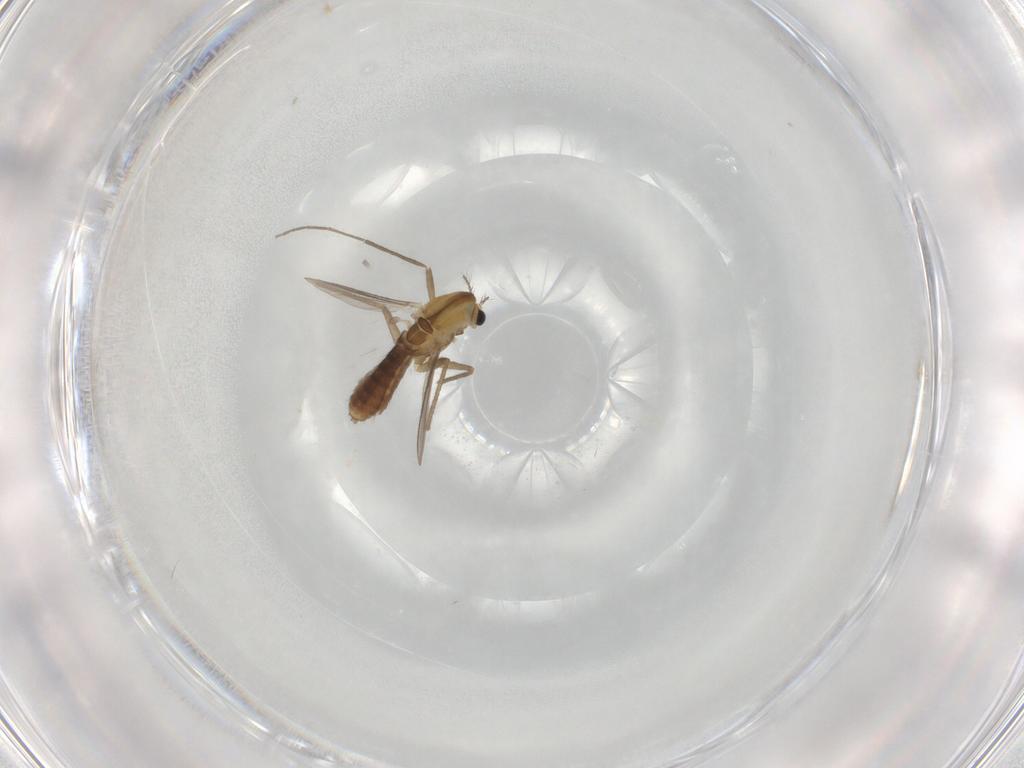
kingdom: Animalia
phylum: Arthropoda
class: Insecta
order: Diptera
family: Chironomidae
